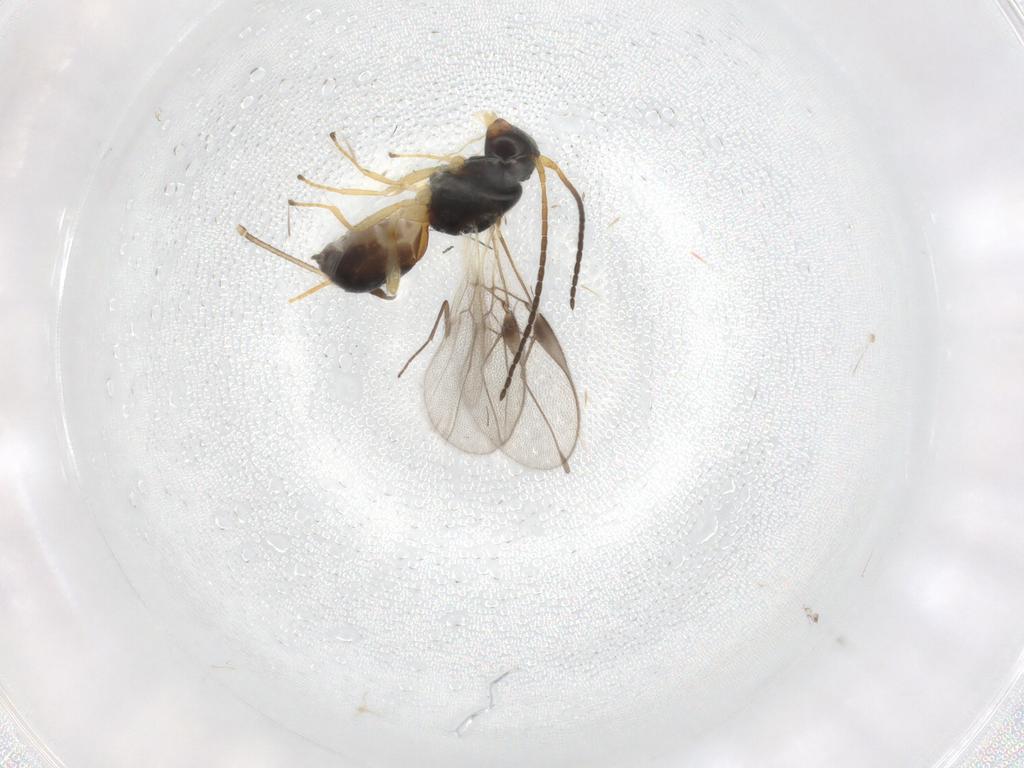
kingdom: Animalia
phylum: Arthropoda
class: Insecta
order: Hymenoptera
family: Braconidae
